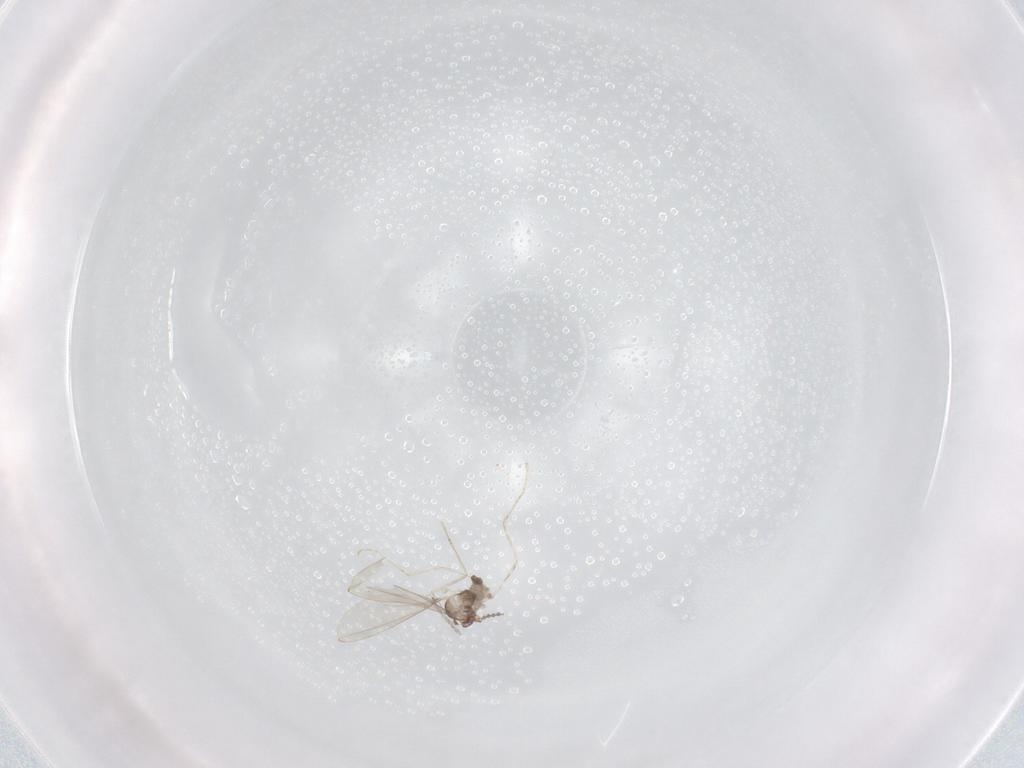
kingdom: Animalia
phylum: Arthropoda
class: Insecta
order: Diptera
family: Cecidomyiidae
